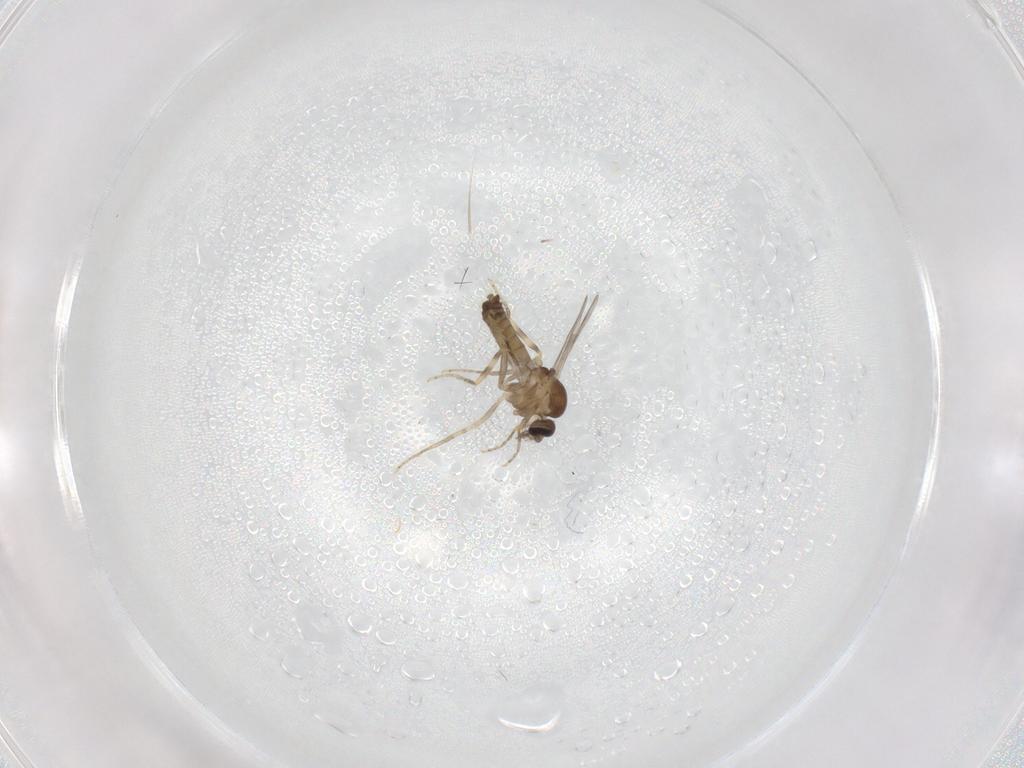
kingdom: Animalia
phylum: Arthropoda
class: Insecta
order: Diptera
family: Ceratopogonidae
